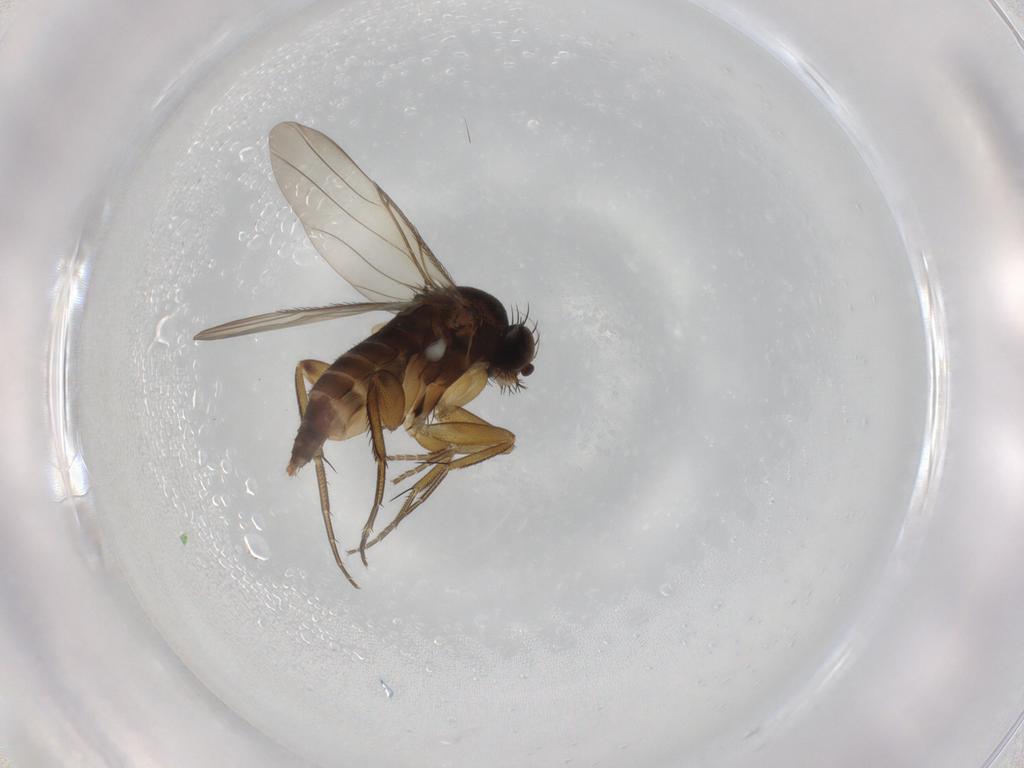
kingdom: Animalia
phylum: Arthropoda
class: Insecta
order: Diptera
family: Phoridae
